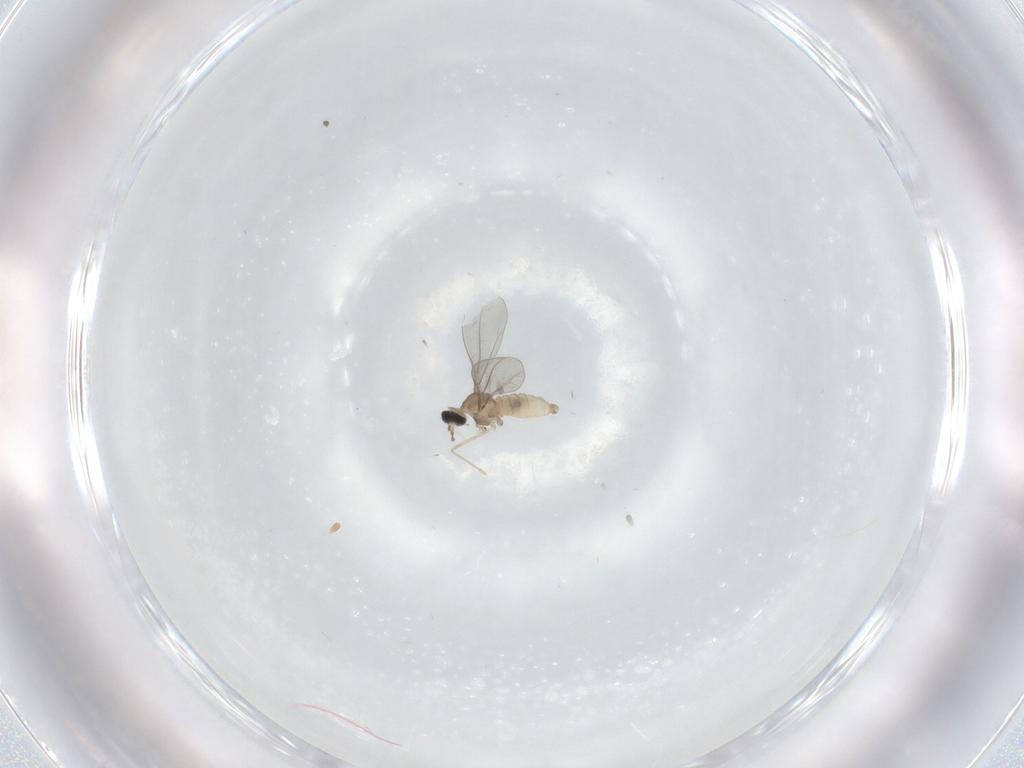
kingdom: Animalia
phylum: Arthropoda
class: Insecta
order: Diptera
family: Cecidomyiidae
